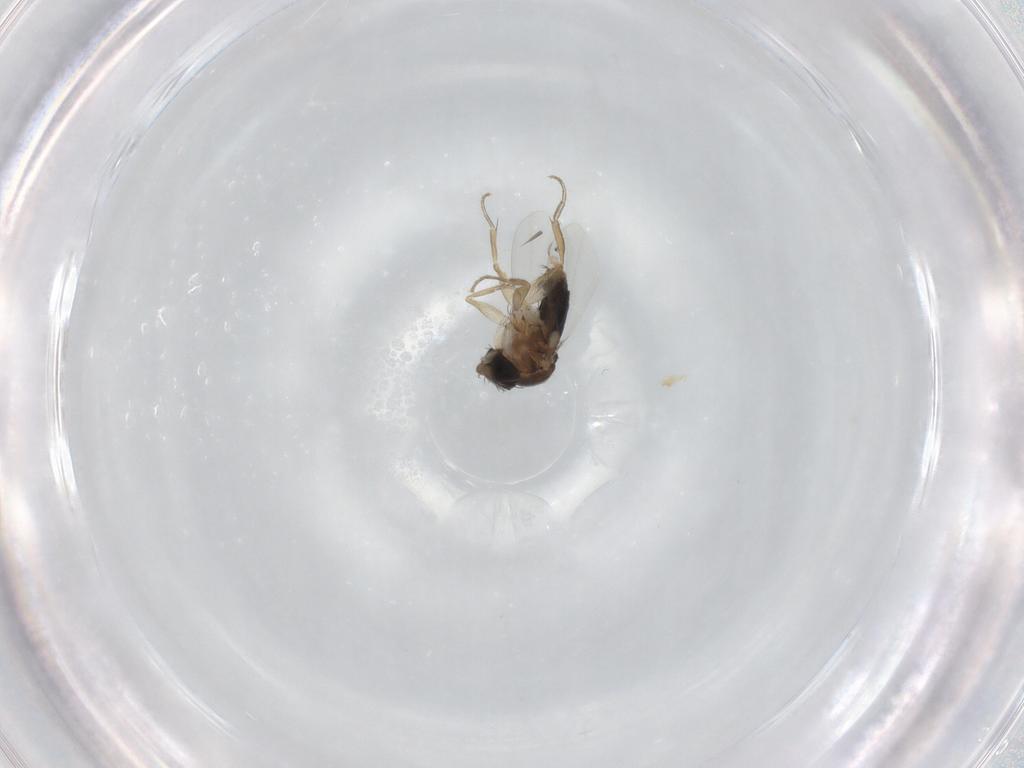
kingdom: Animalia
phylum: Arthropoda
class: Insecta
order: Diptera
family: Phoridae
